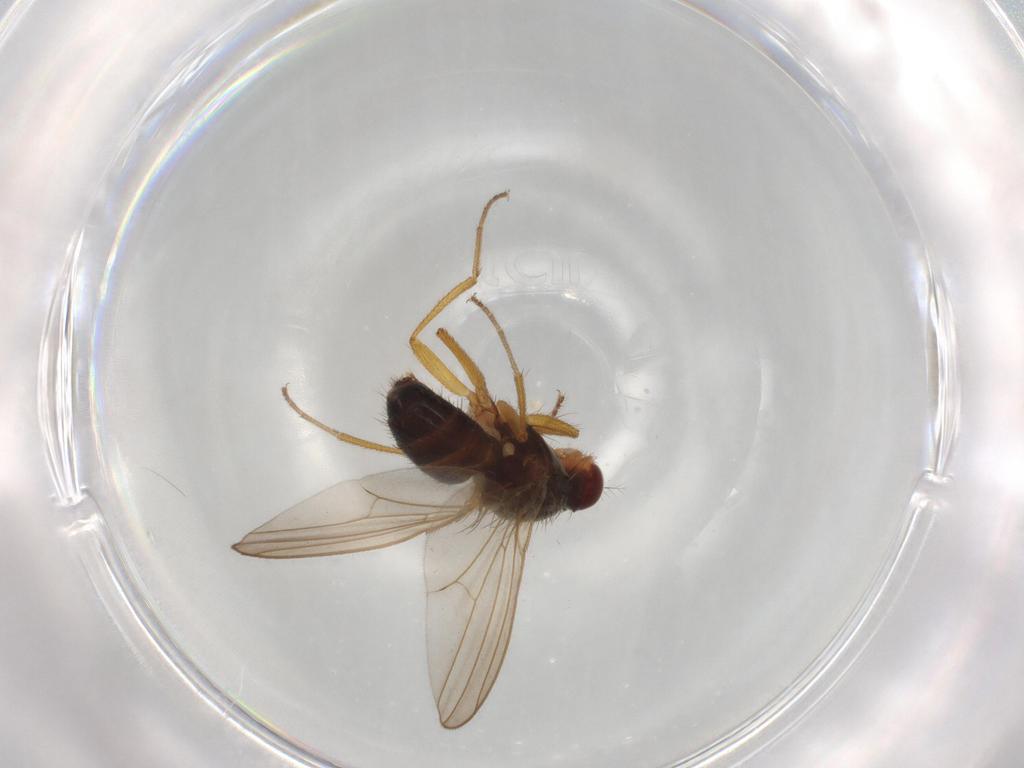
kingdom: Animalia
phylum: Arthropoda
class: Insecta
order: Diptera
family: Drosophilidae
